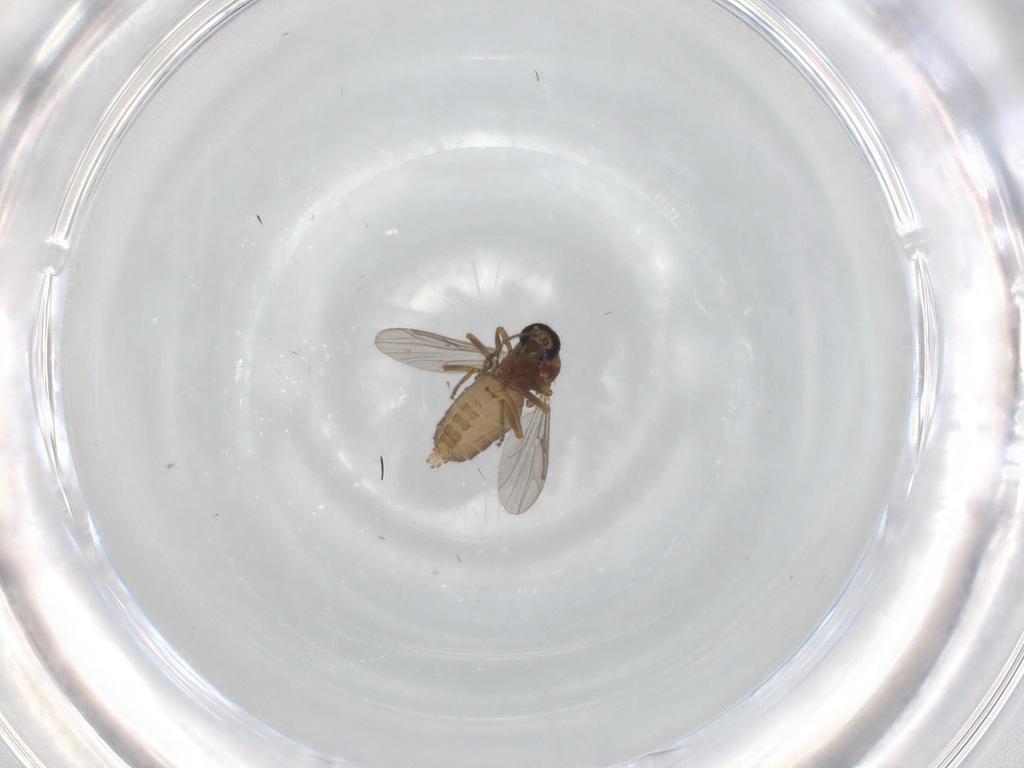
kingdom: Animalia
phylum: Arthropoda
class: Insecta
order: Diptera
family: Ceratopogonidae
